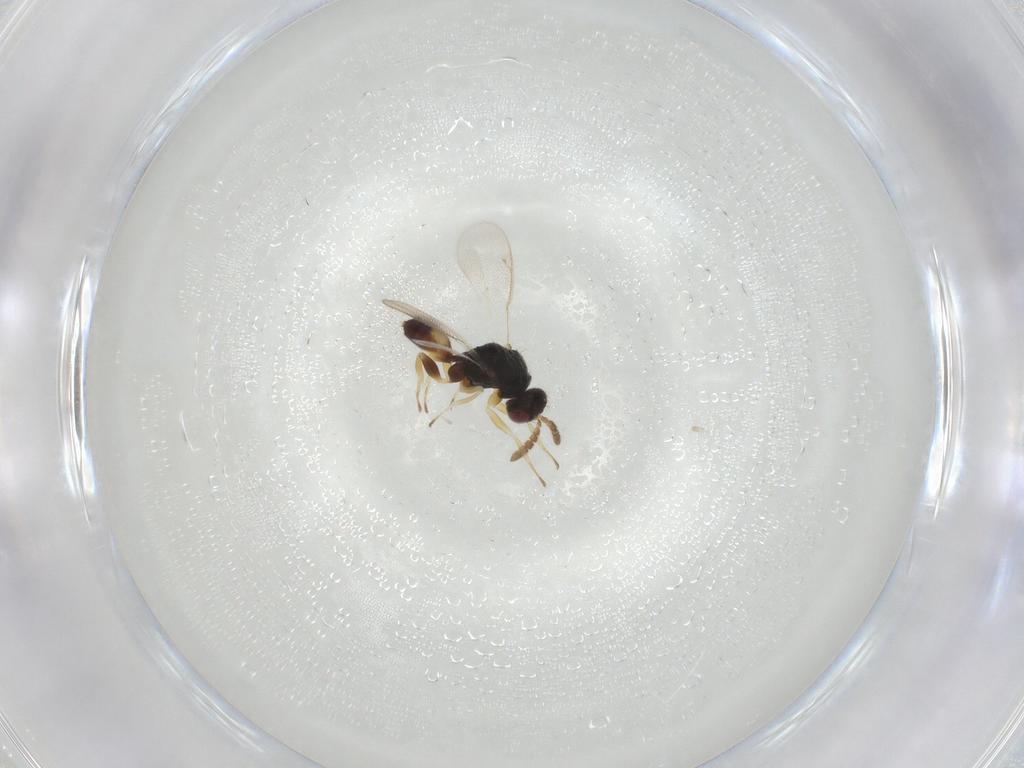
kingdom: Animalia
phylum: Arthropoda
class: Insecta
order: Hymenoptera
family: Eulophidae
